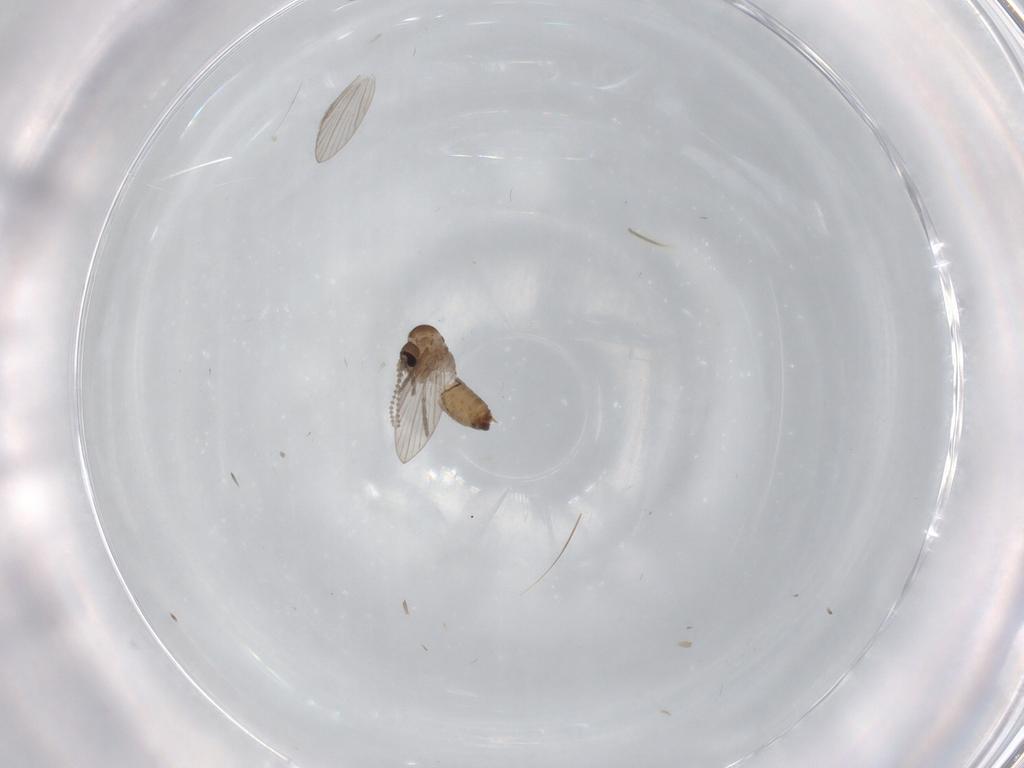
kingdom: Animalia
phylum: Arthropoda
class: Insecta
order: Diptera
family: Psychodidae
